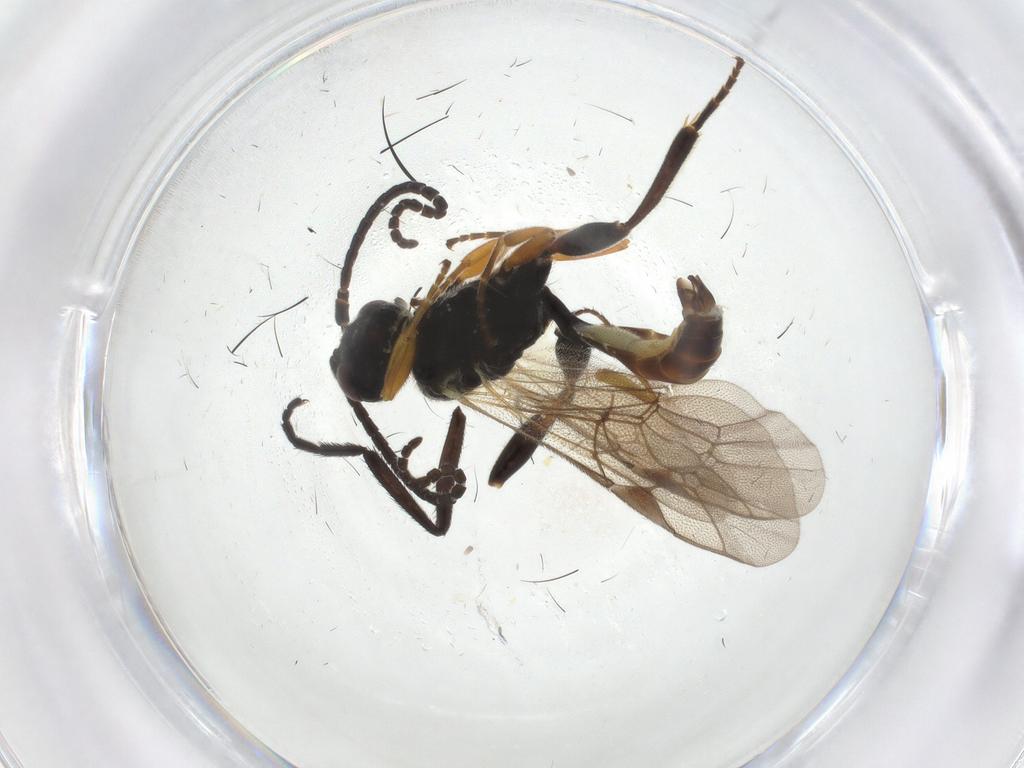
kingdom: Animalia
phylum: Arthropoda
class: Insecta
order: Hymenoptera
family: Ichneumonidae
